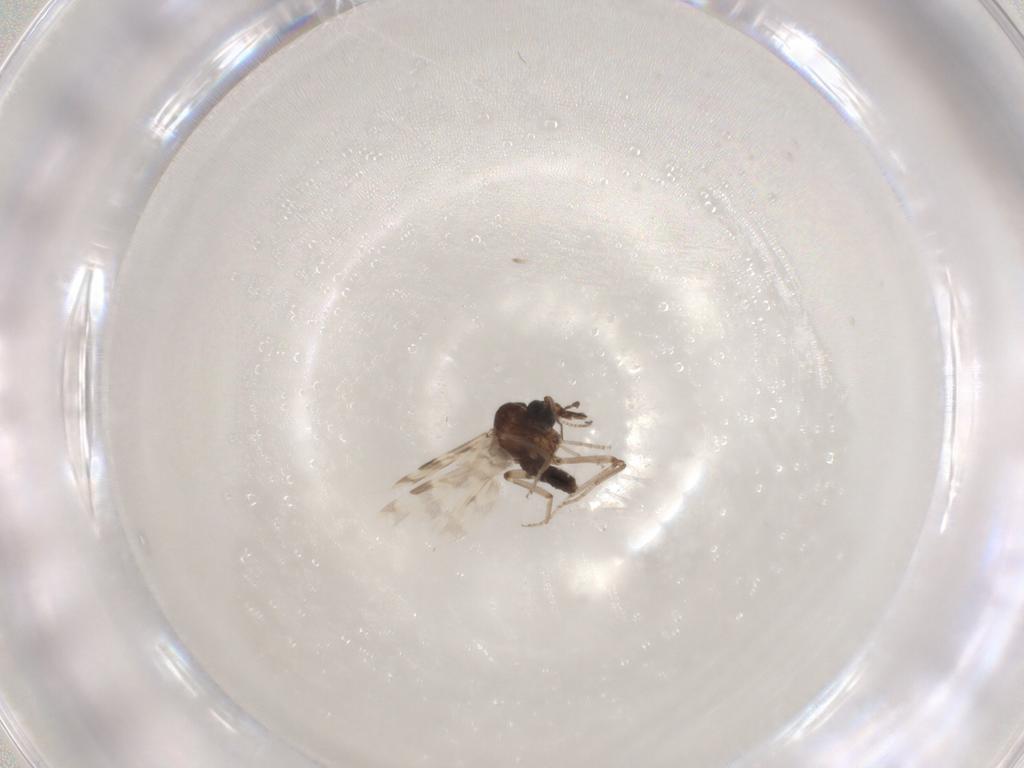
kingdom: Animalia
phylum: Arthropoda
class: Insecta
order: Diptera
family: Ceratopogonidae
